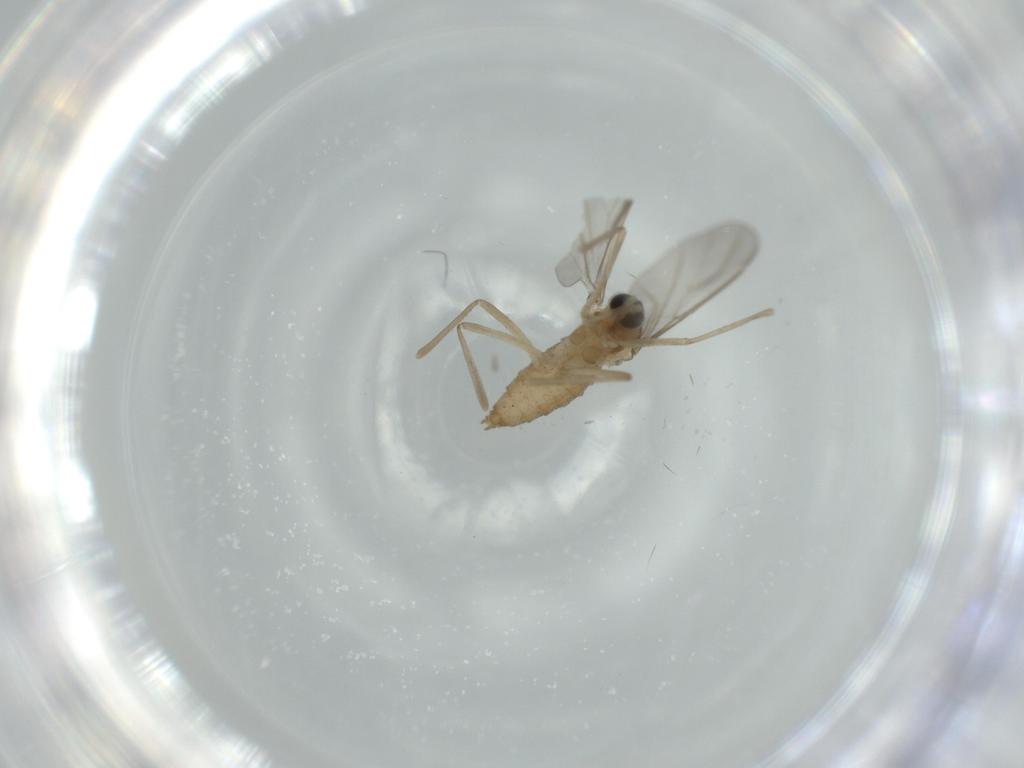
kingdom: Animalia
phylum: Arthropoda
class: Insecta
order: Diptera
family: Cecidomyiidae
